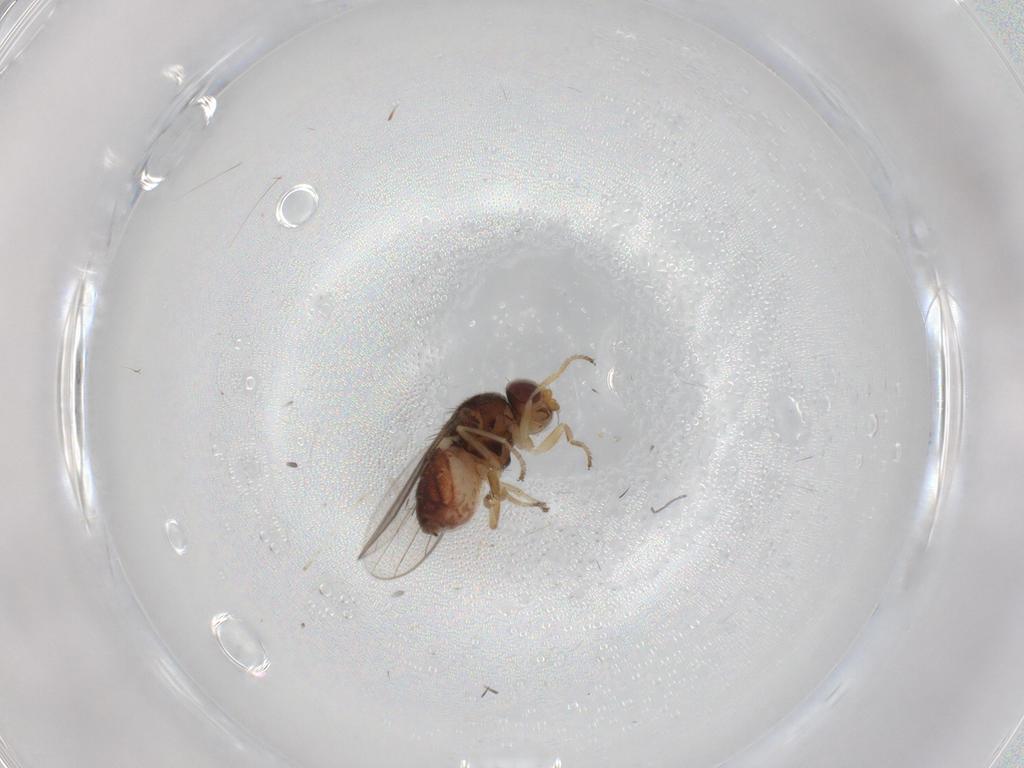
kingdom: Animalia
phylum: Arthropoda
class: Insecta
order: Diptera
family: Chloropidae
